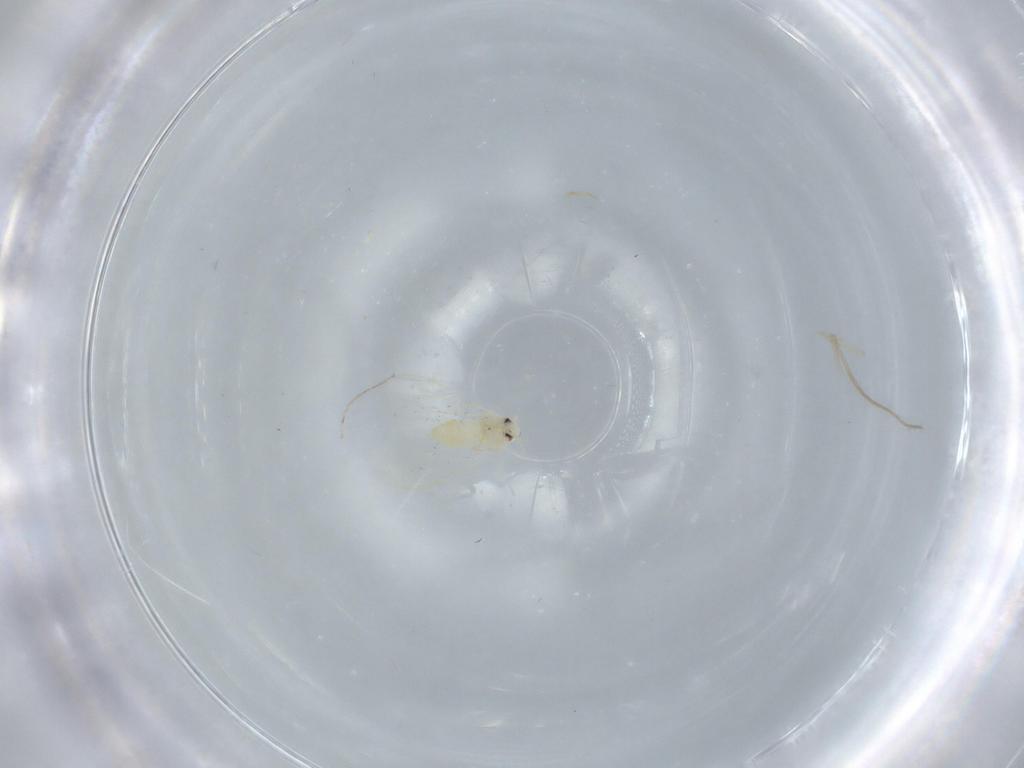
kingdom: Animalia
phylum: Arthropoda
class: Insecta
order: Hemiptera
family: Aleyrodidae
